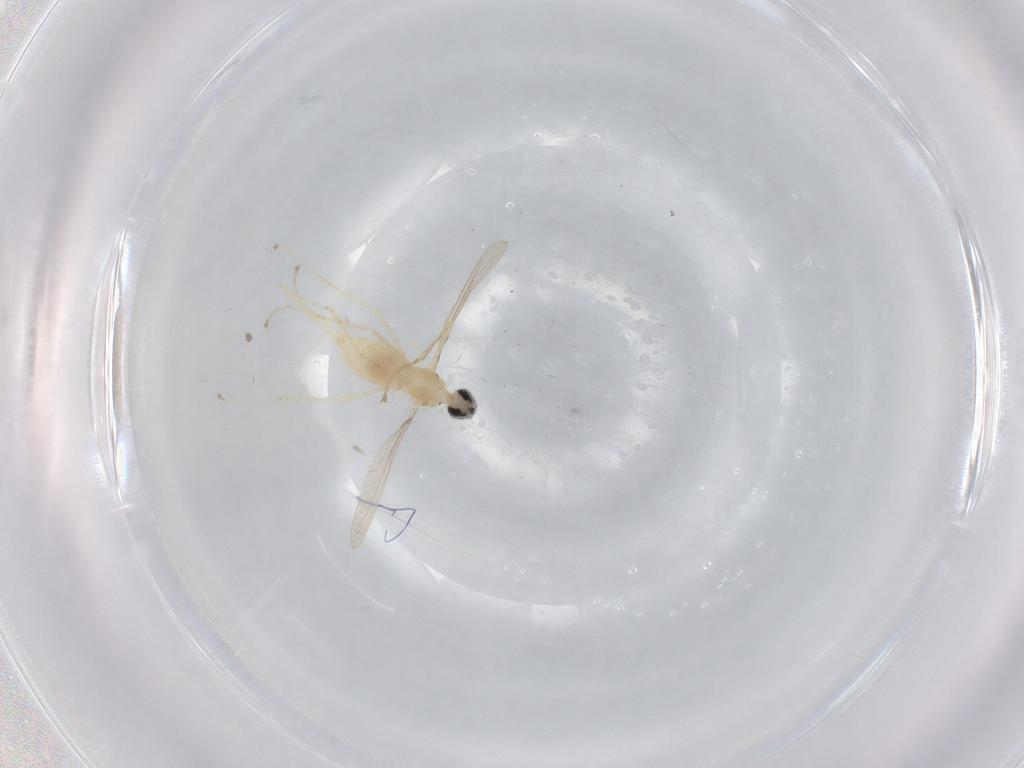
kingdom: Animalia
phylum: Arthropoda
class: Insecta
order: Diptera
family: Cecidomyiidae
